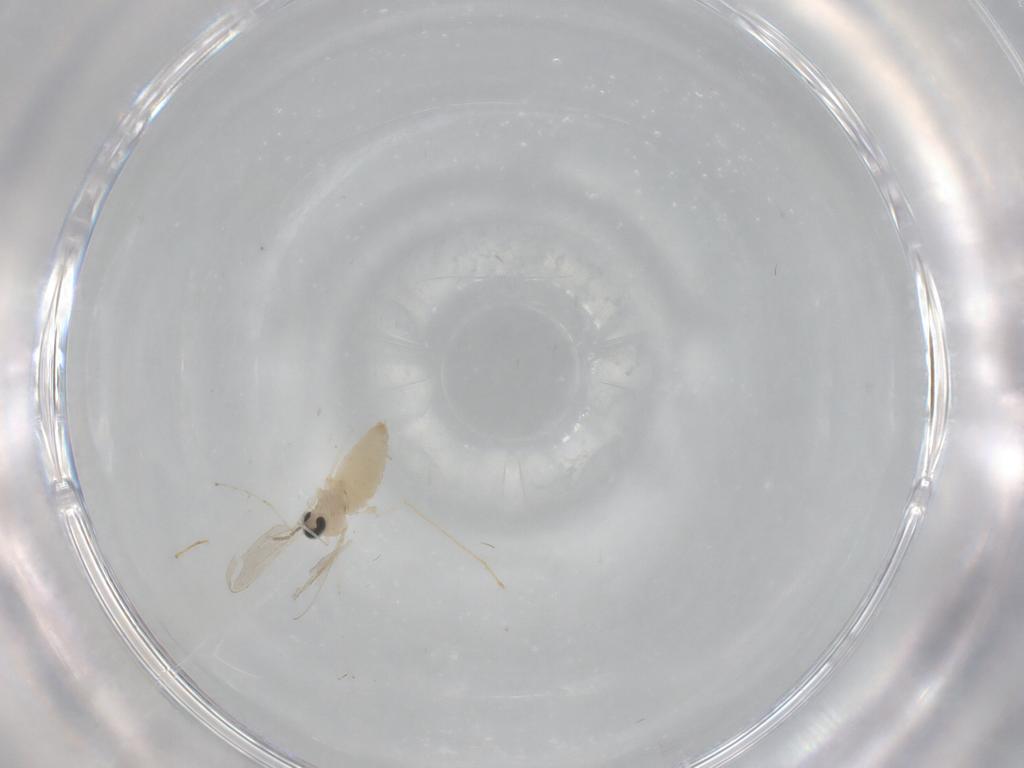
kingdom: Animalia
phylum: Arthropoda
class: Insecta
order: Diptera
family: Cecidomyiidae
